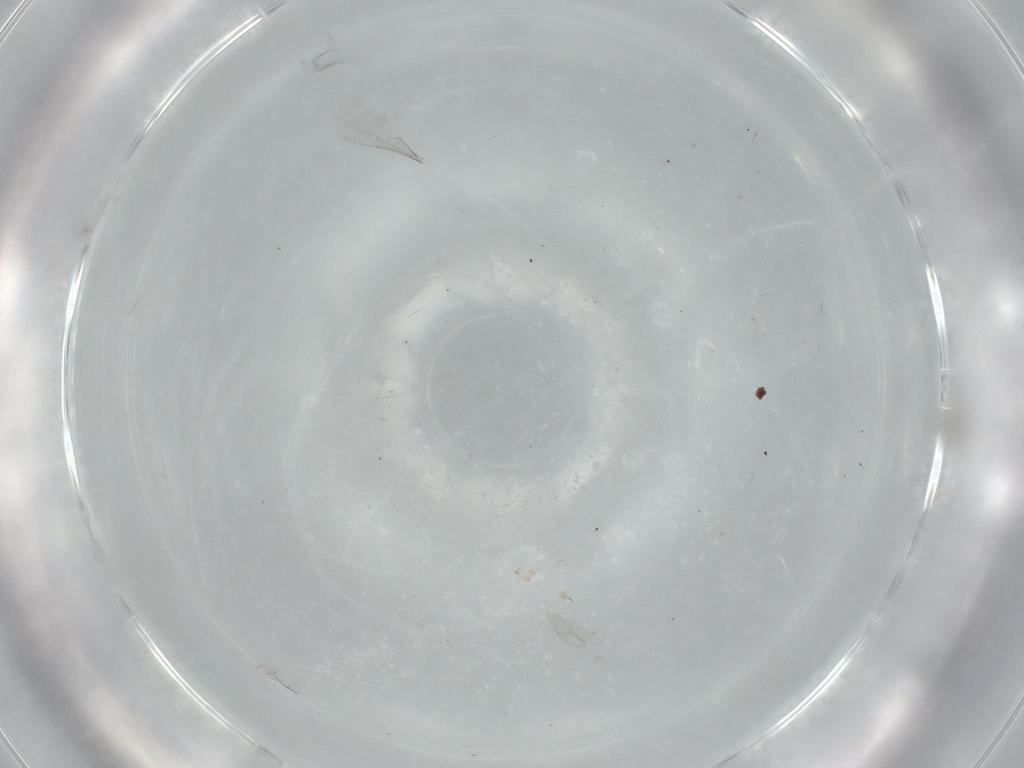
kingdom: Animalia
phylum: Arthropoda
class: Insecta
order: Diptera
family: Cecidomyiidae
